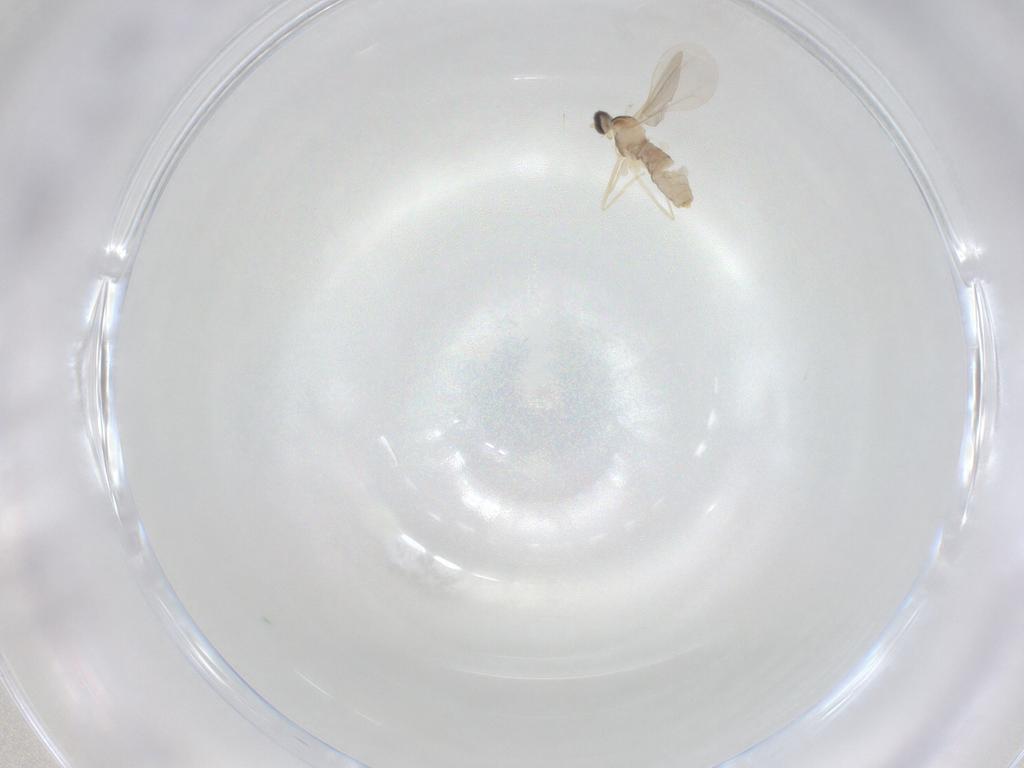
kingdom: Animalia
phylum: Arthropoda
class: Insecta
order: Diptera
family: Cecidomyiidae
